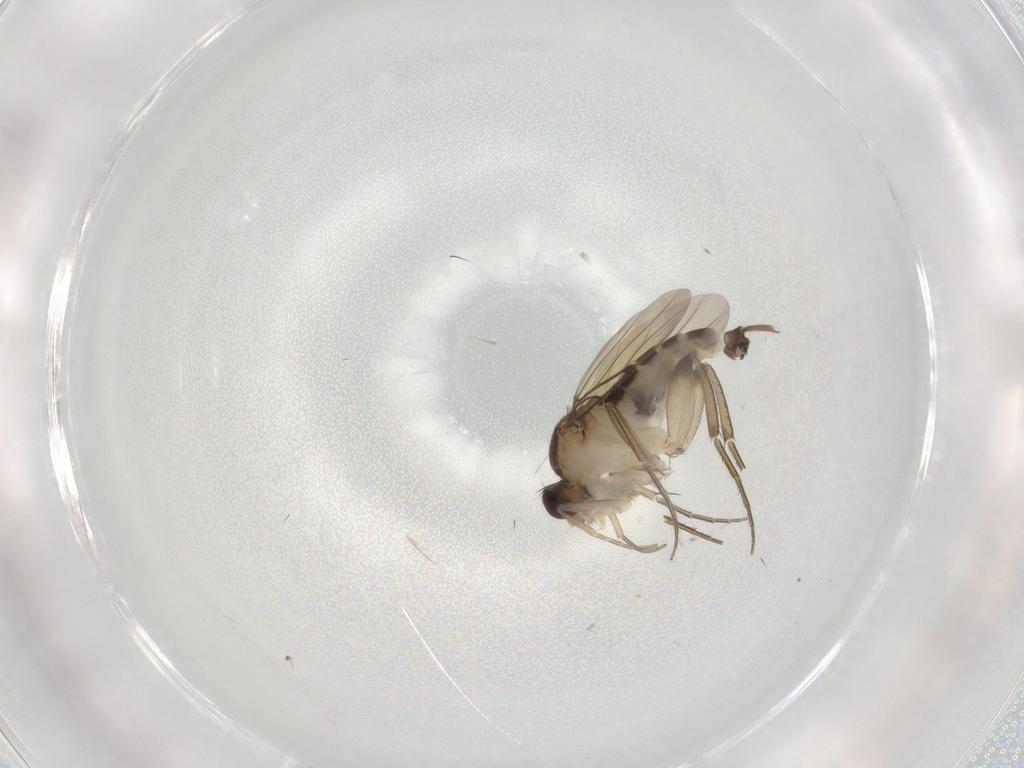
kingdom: Animalia
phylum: Arthropoda
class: Insecta
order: Diptera
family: Phoridae
